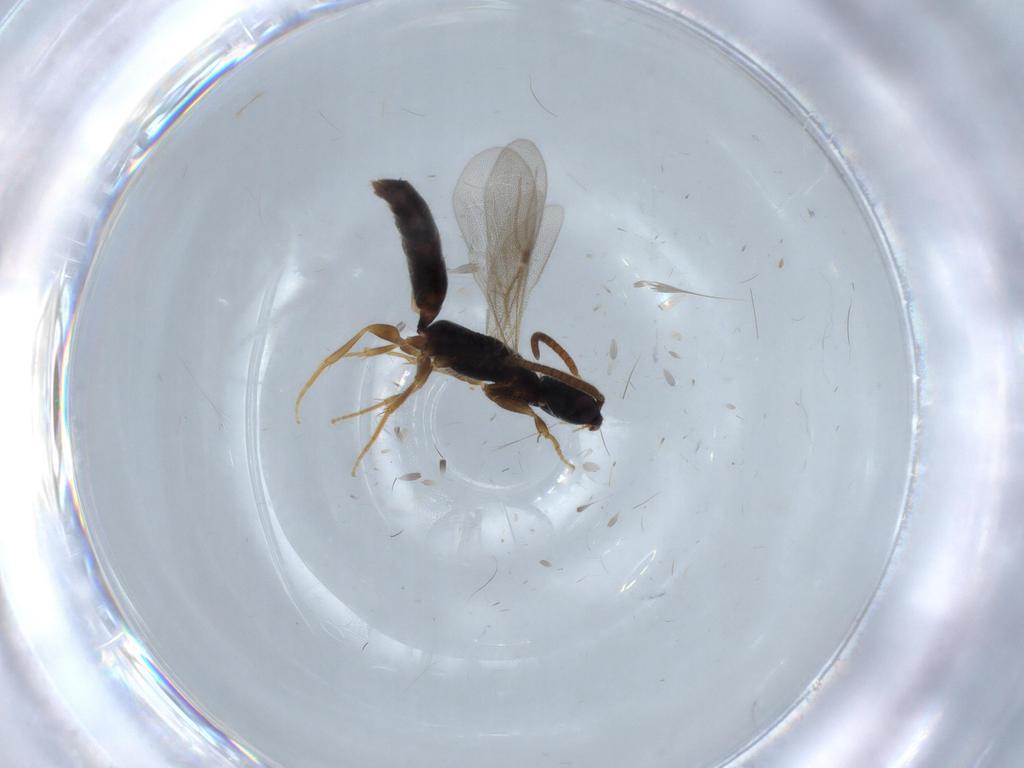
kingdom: Animalia
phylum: Arthropoda
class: Insecta
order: Hymenoptera
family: Bethylidae
